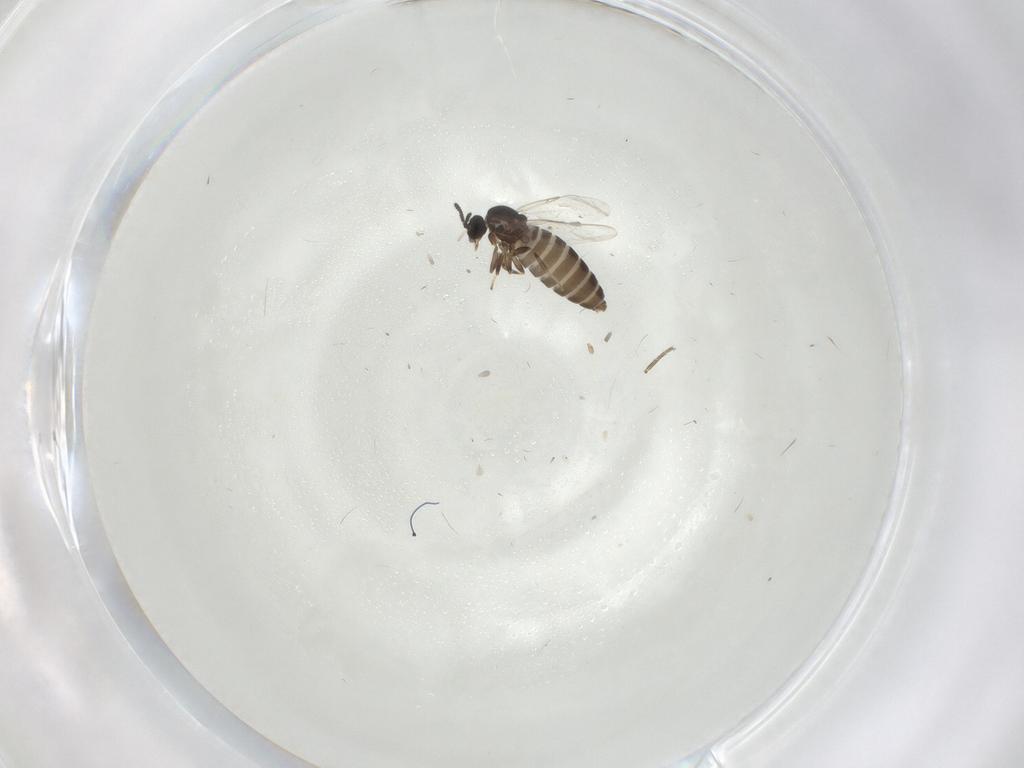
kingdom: Animalia
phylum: Arthropoda
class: Insecta
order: Diptera
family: Scatopsidae
